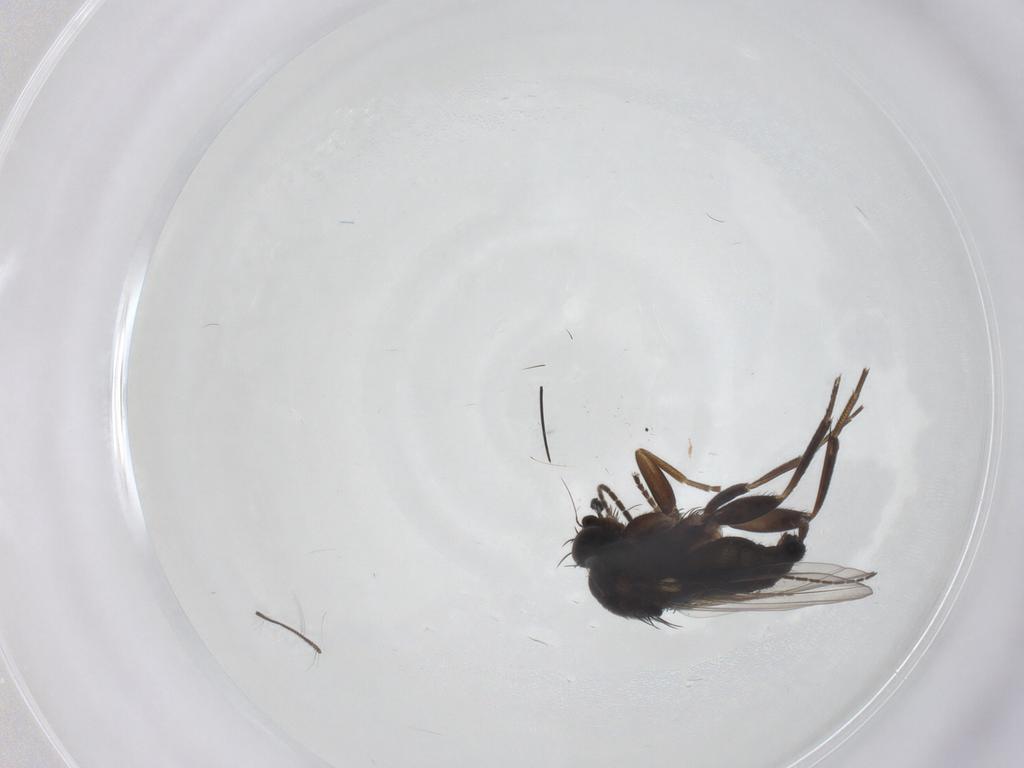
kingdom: Animalia
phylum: Arthropoda
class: Insecta
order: Diptera
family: Phoridae
